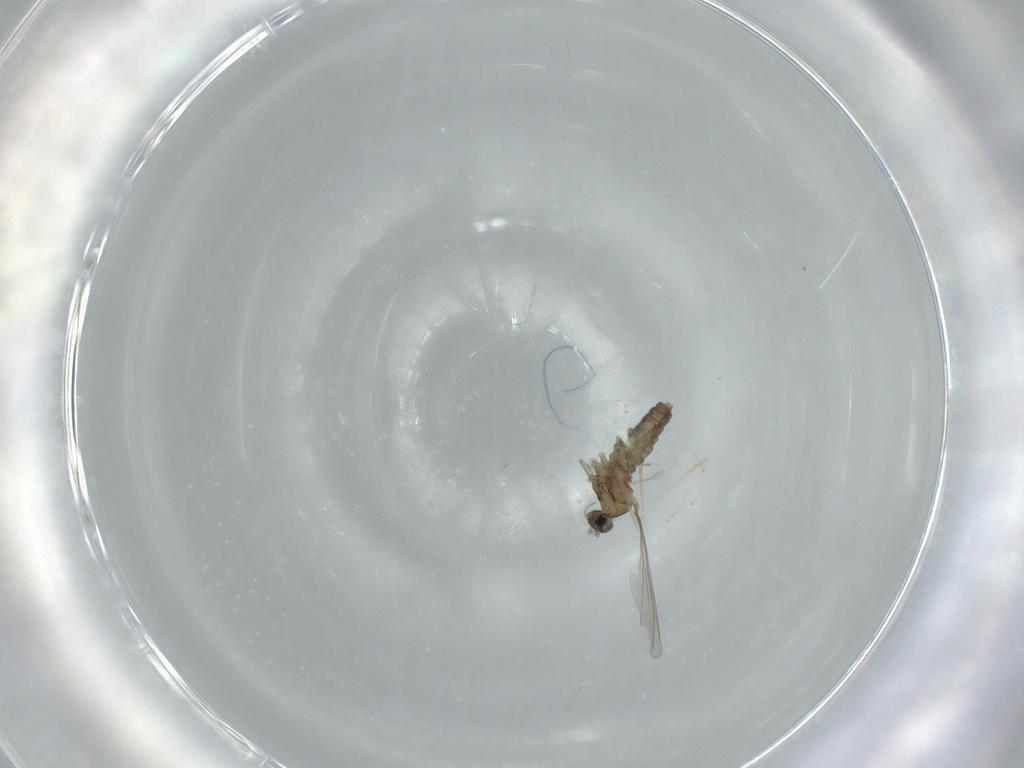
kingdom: Animalia
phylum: Arthropoda
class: Insecta
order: Diptera
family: Cecidomyiidae
